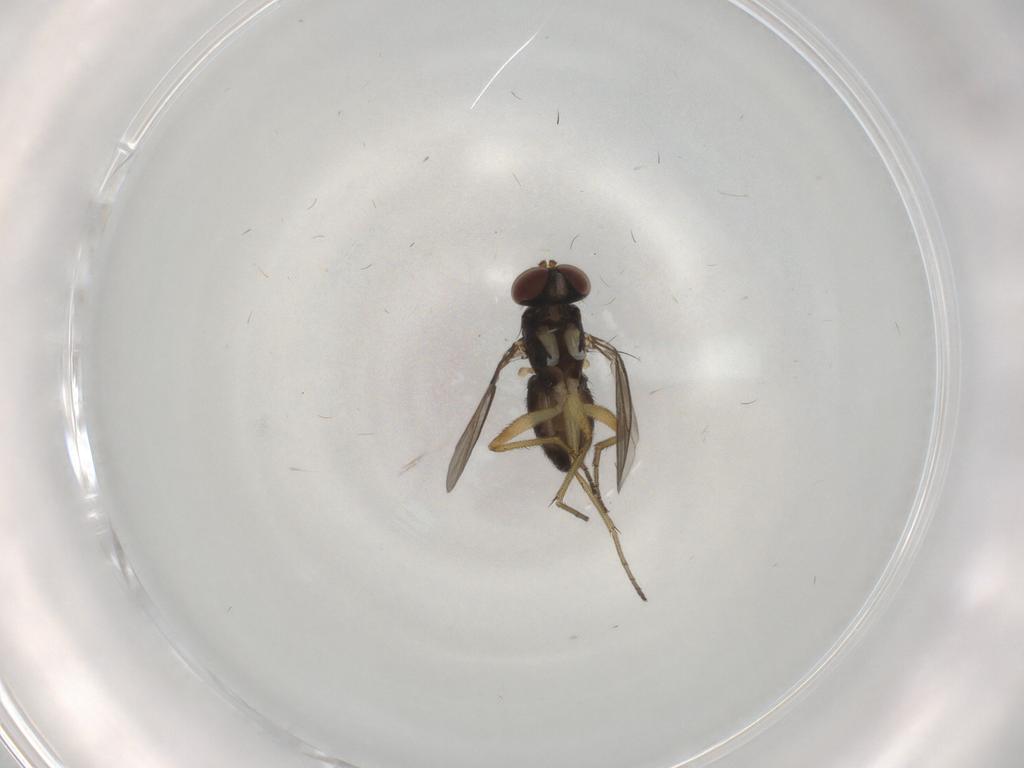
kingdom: Animalia
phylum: Arthropoda
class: Insecta
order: Diptera
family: Dolichopodidae
